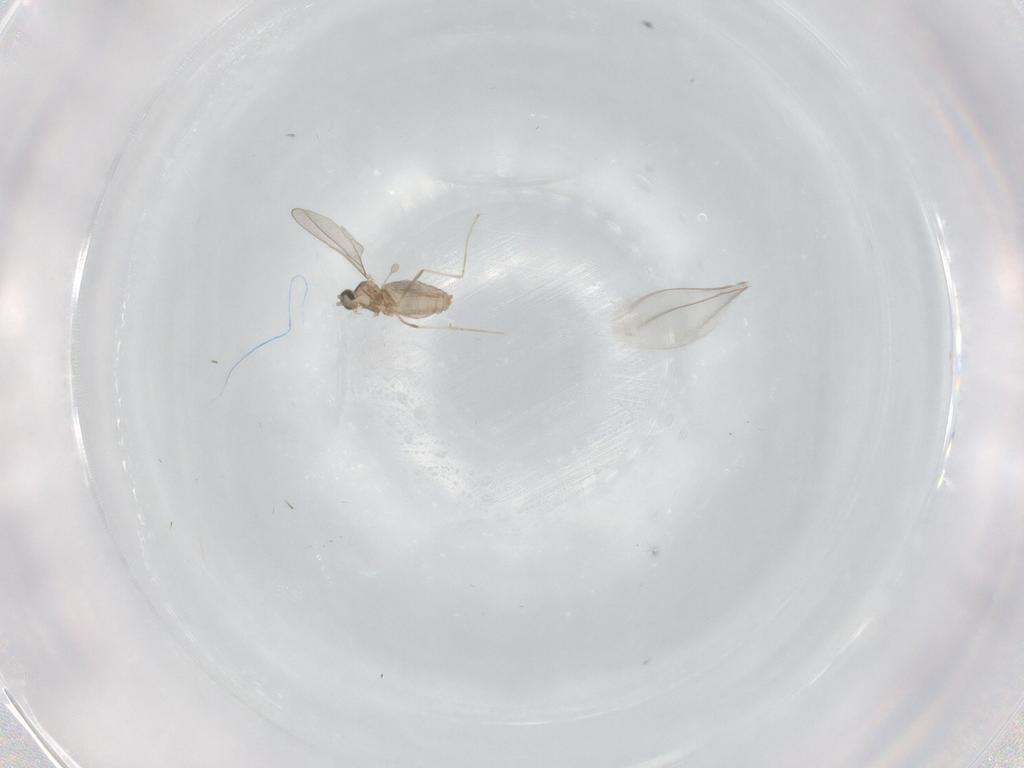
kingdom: Animalia
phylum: Arthropoda
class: Insecta
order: Diptera
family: Cecidomyiidae
